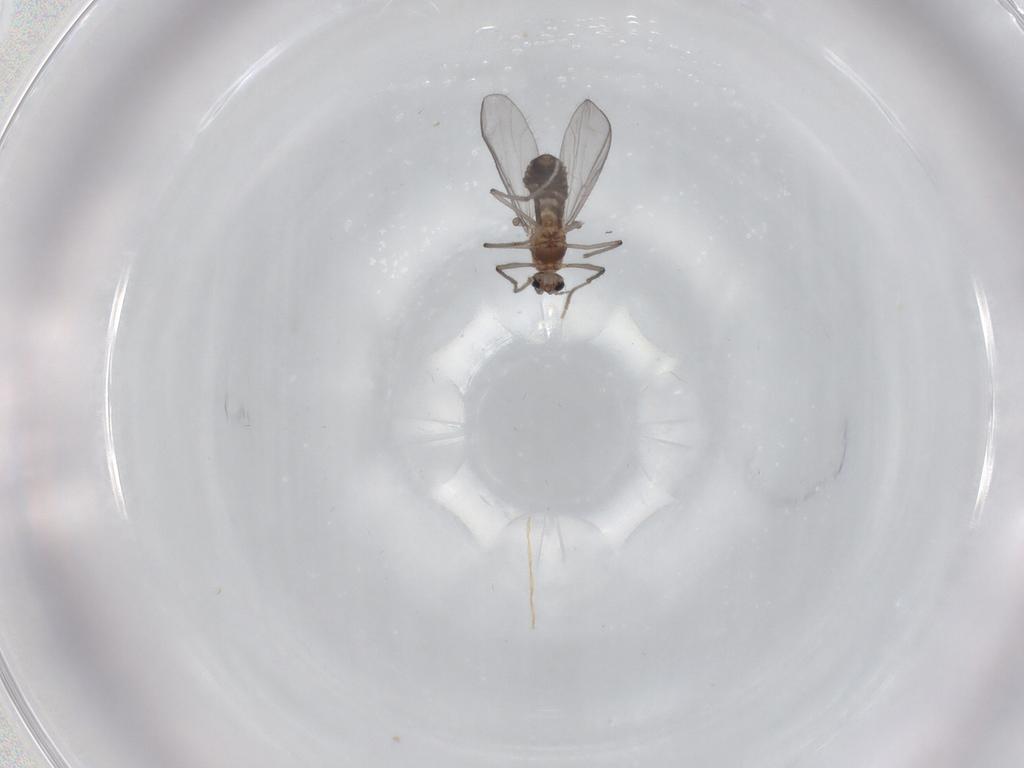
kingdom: Animalia
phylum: Arthropoda
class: Insecta
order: Diptera
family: Chironomidae
